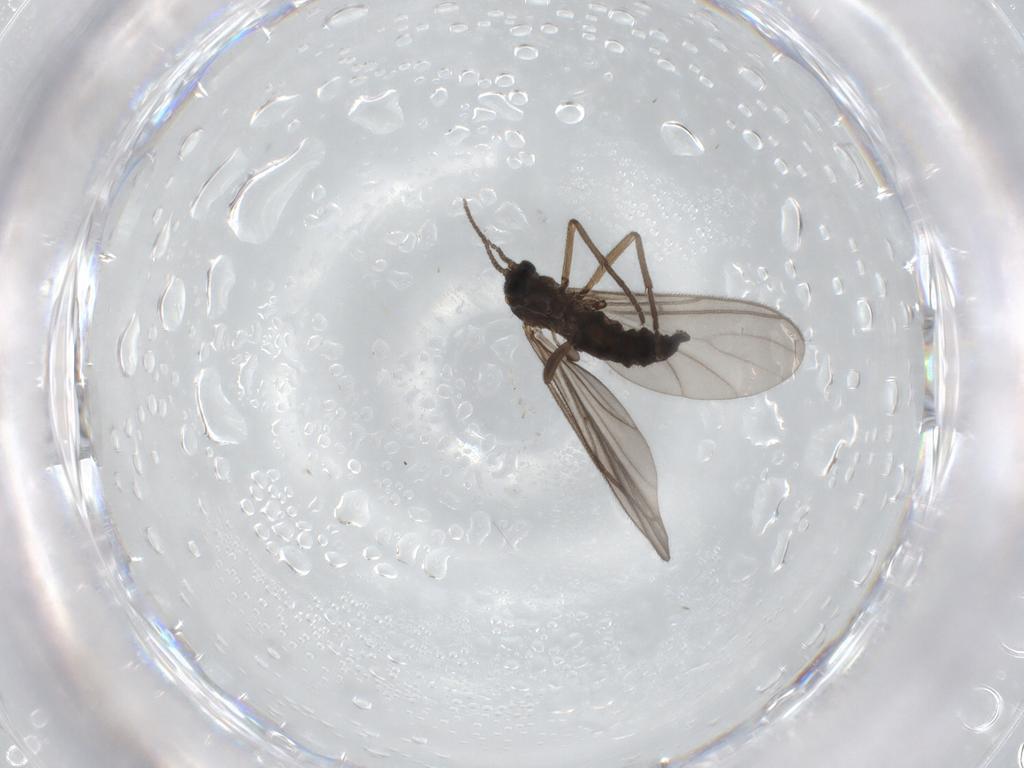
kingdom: Animalia
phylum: Arthropoda
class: Insecta
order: Diptera
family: Sciaridae
